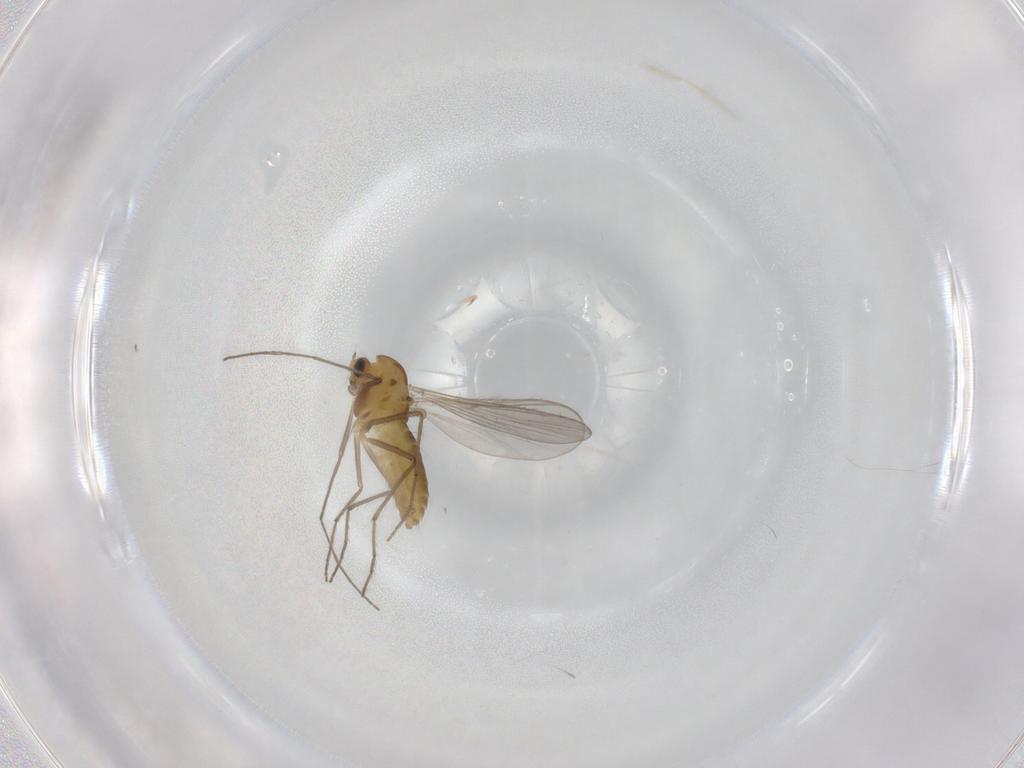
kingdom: Animalia
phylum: Arthropoda
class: Insecta
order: Diptera
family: Chironomidae
